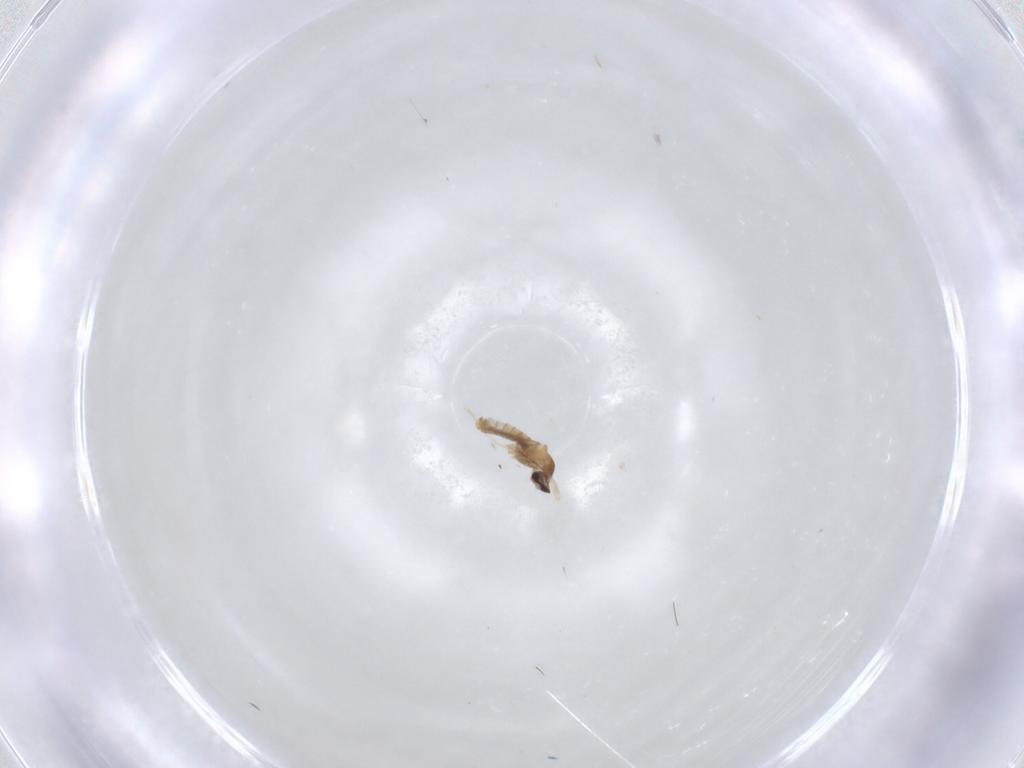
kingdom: Animalia
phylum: Arthropoda
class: Insecta
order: Diptera
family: Cecidomyiidae
